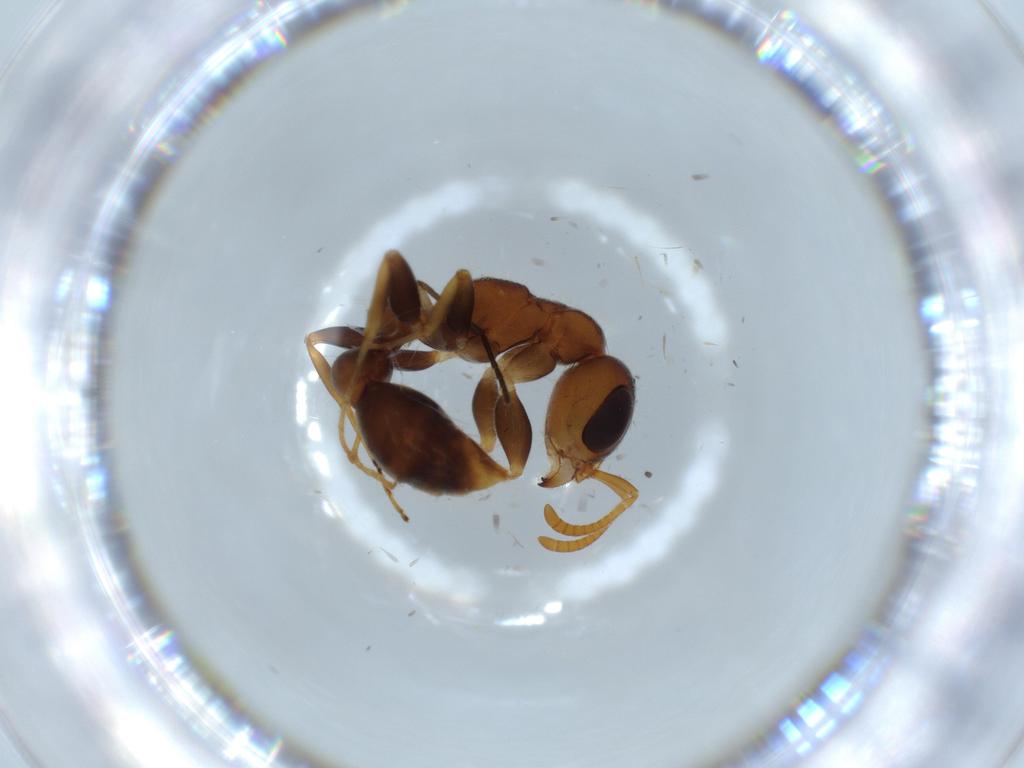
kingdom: Animalia
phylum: Arthropoda
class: Insecta
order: Hymenoptera
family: Formicidae
